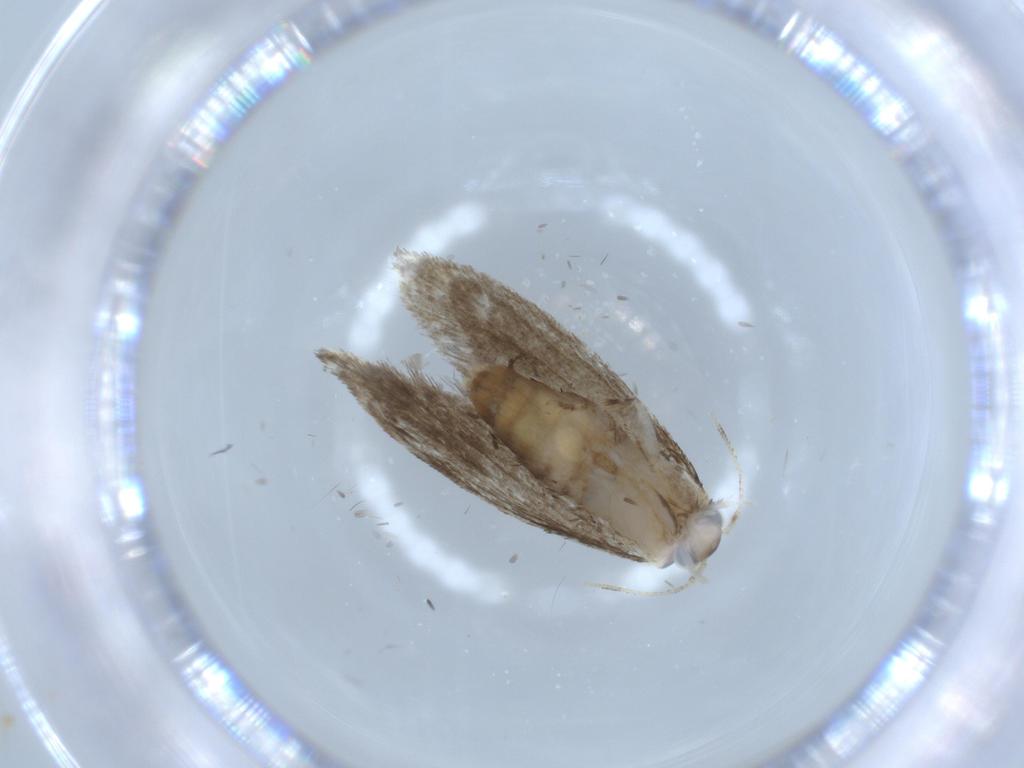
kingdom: Animalia
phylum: Arthropoda
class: Insecta
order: Lepidoptera
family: Tineidae
